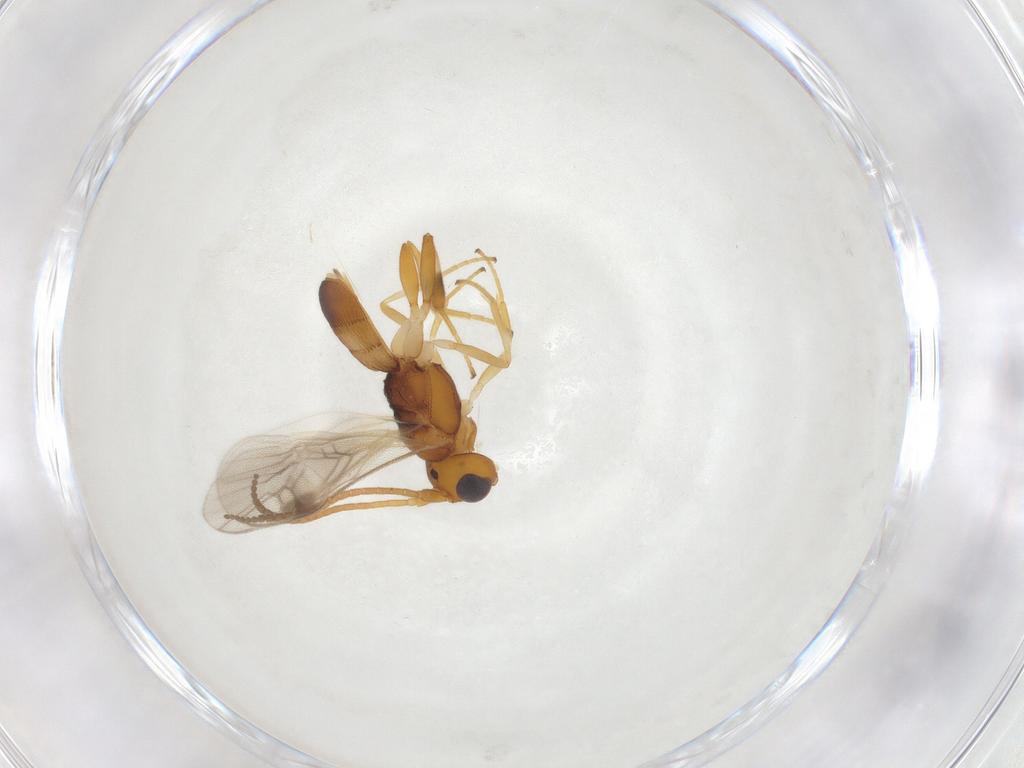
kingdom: Animalia
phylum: Arthropoda
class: Insecta
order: Hymenoptera
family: Braconidae
